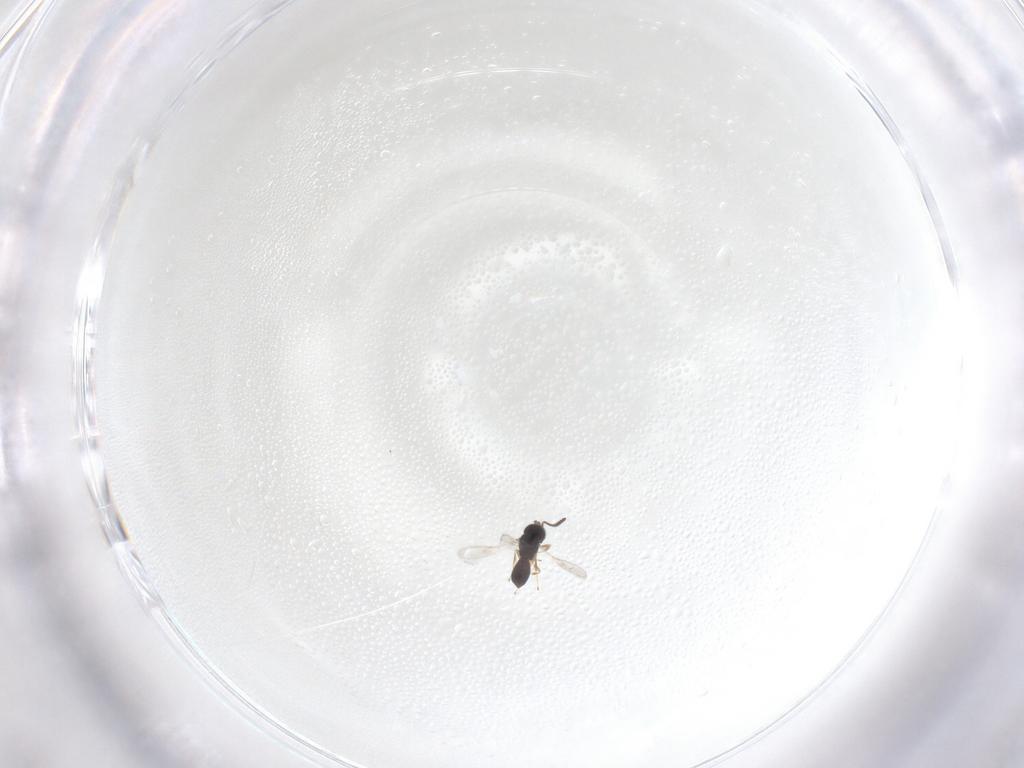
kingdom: Animalia
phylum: Arthropoda
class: Insecta
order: Hymenoptera
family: Scelionidae
